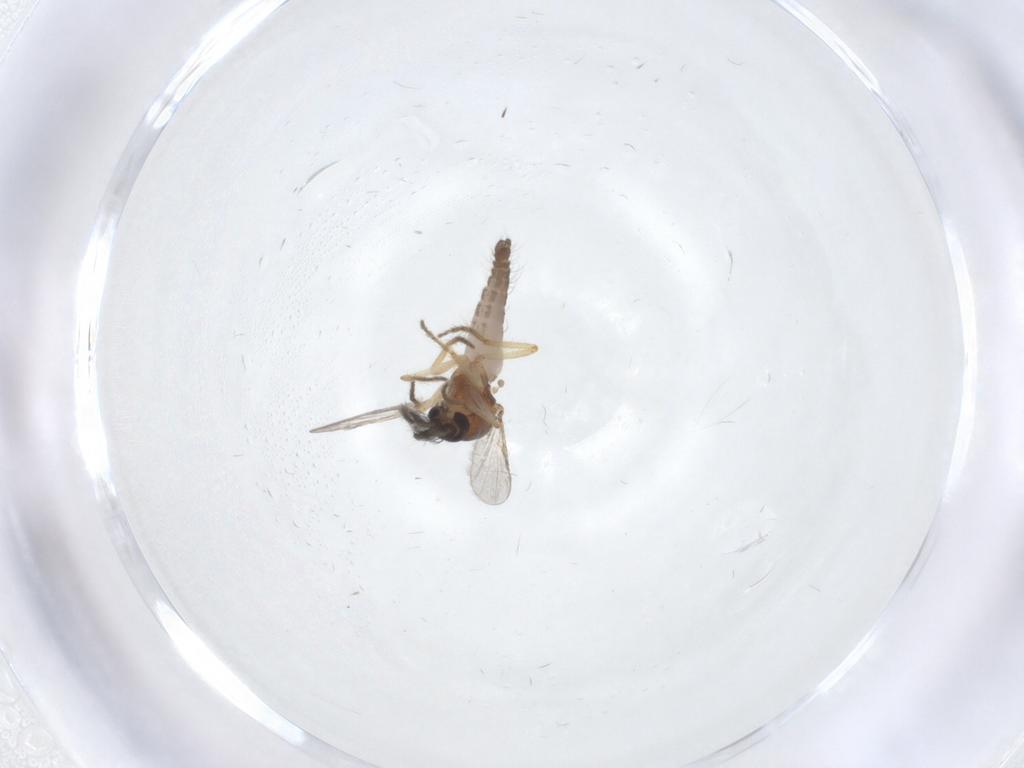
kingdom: Animalia
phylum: Arthropoda
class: Insecta
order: Diptera
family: Ceratopogonidae
